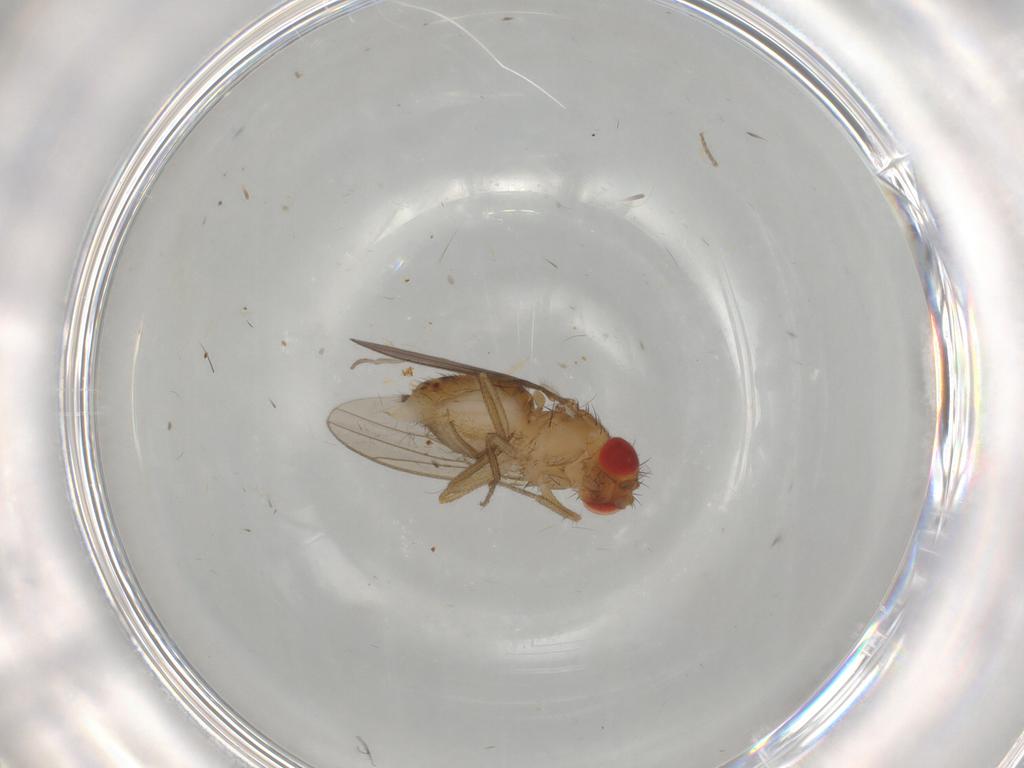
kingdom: Animalia
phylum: Arthropoda
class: Insecta
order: Diptera
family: Drosophilidae
